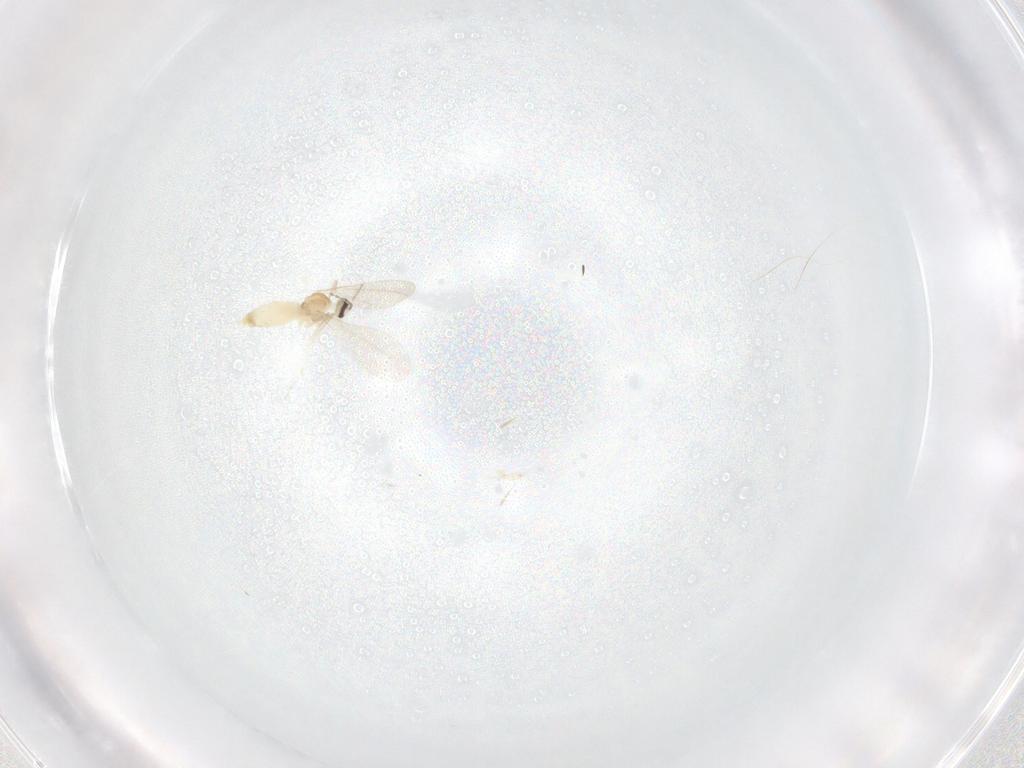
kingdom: Animalia
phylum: Arthropoda
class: Insecta
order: Diptera
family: Cecidomyiidae
